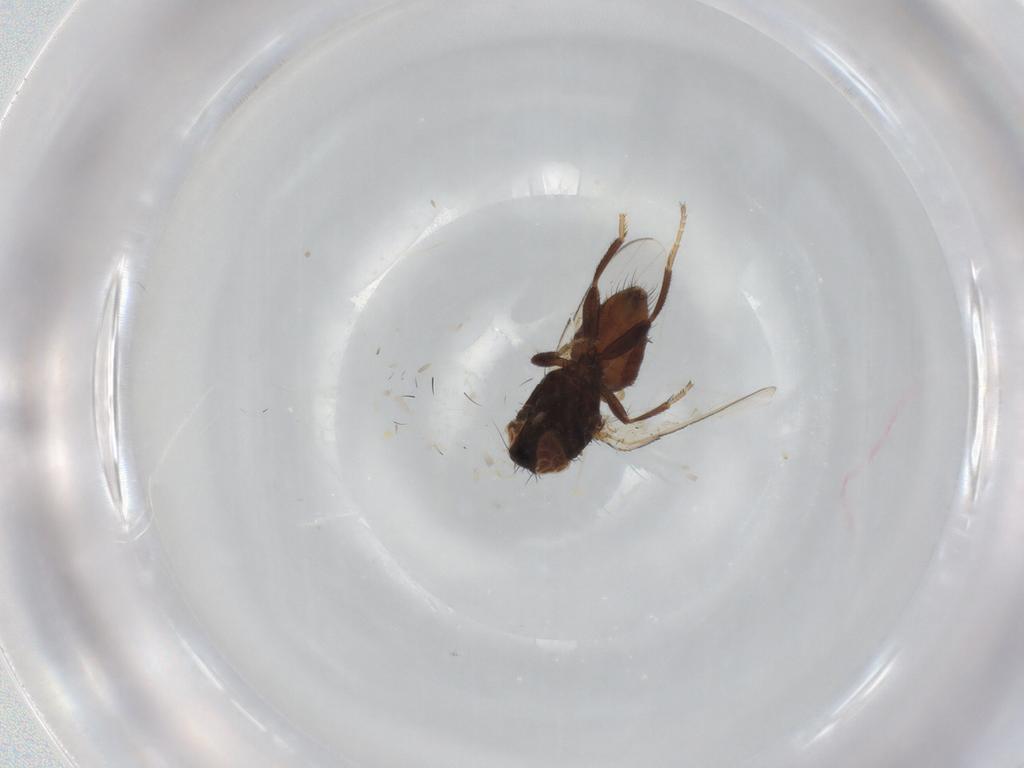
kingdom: Animalia
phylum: Arthropoda
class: Insecta
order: Diptera
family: Milichiidae
